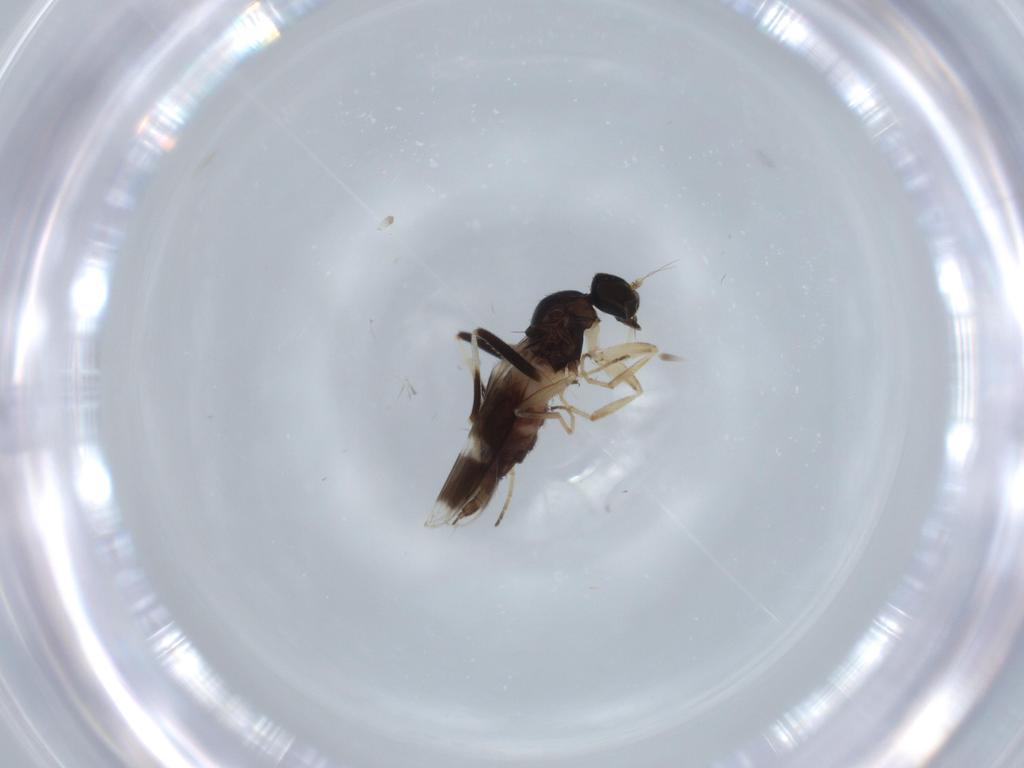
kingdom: Animalia
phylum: Arthropoda
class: Insecta
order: Diptera
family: Hybotidae
